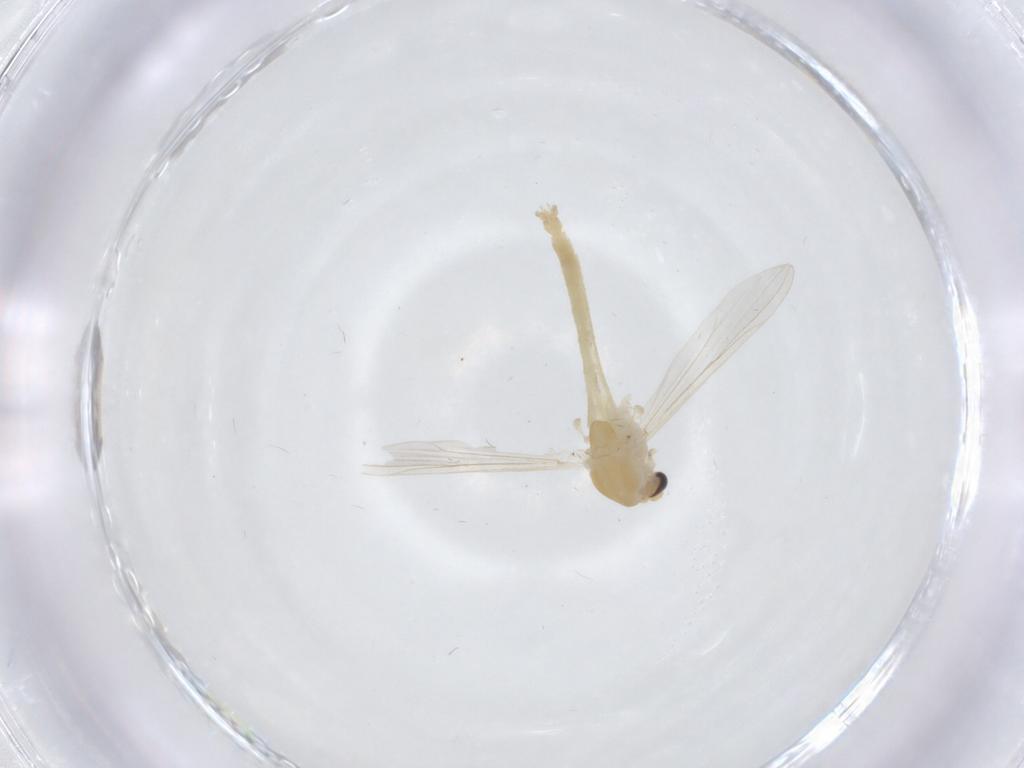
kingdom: Animalia
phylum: Arthropoda
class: Insecta
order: Diptera
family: Chironomidae
